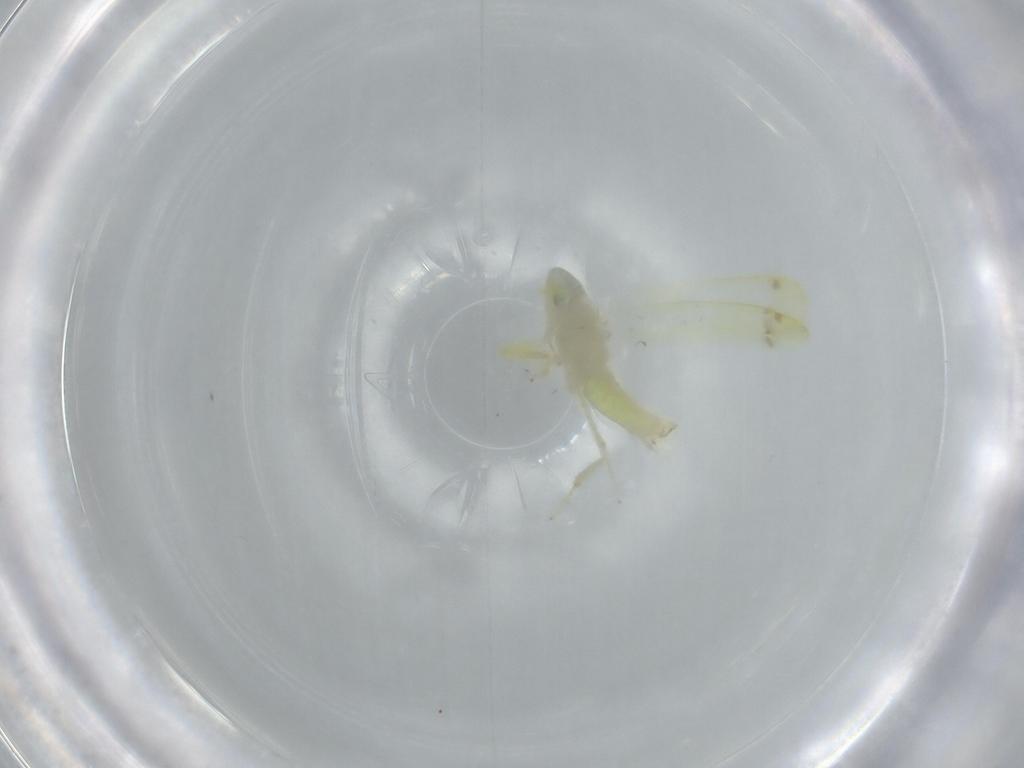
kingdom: Animalia
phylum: Arthropoda
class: Insecta
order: Hemiptera
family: Cicadellidae
